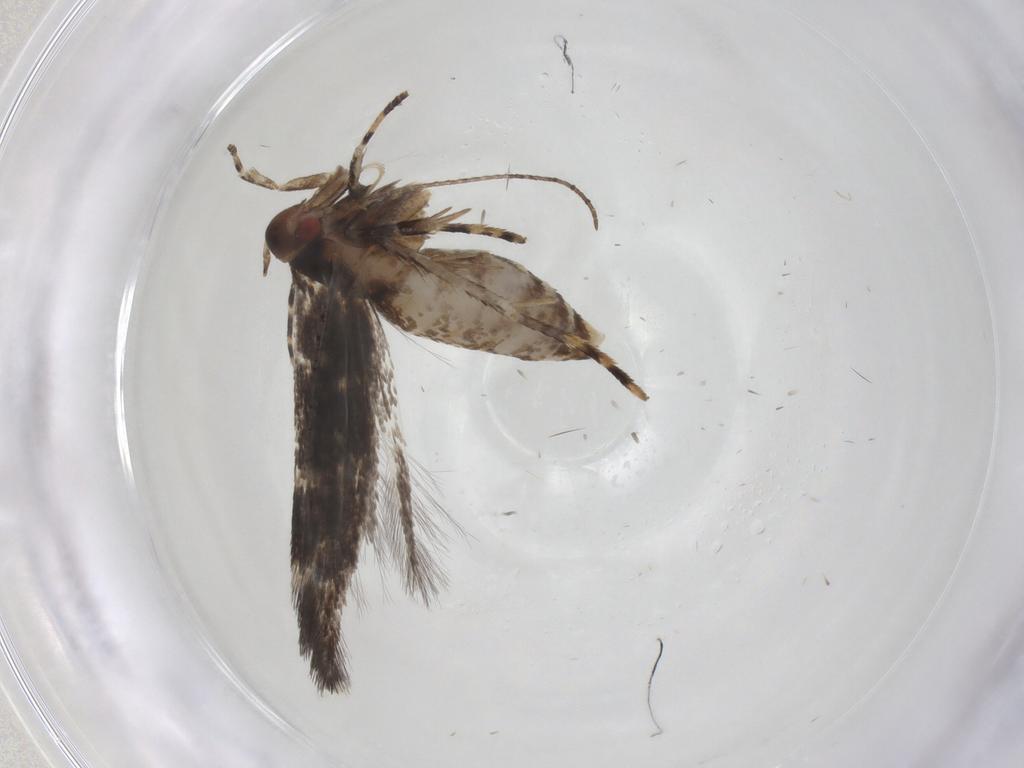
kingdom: Animalia
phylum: Arthropoda
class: Insecta
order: Lepidoptera
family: Cosmopterigidae
